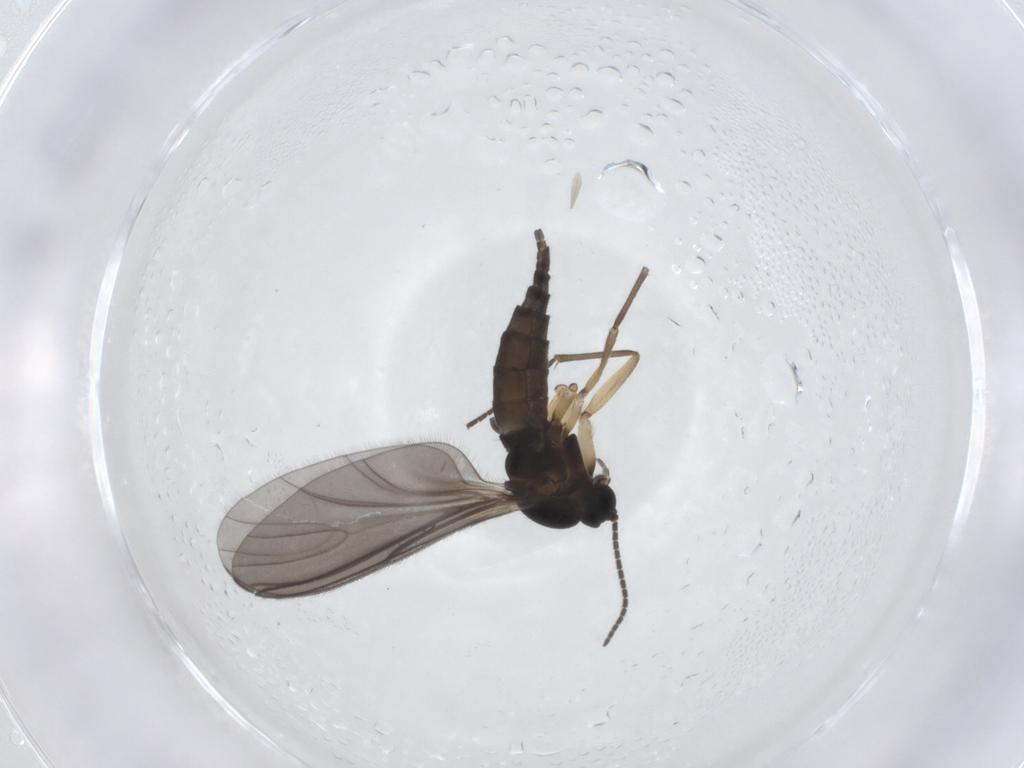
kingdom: Animalia
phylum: Arthropoda
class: Insecta
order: Diptera
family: Sciaridae
